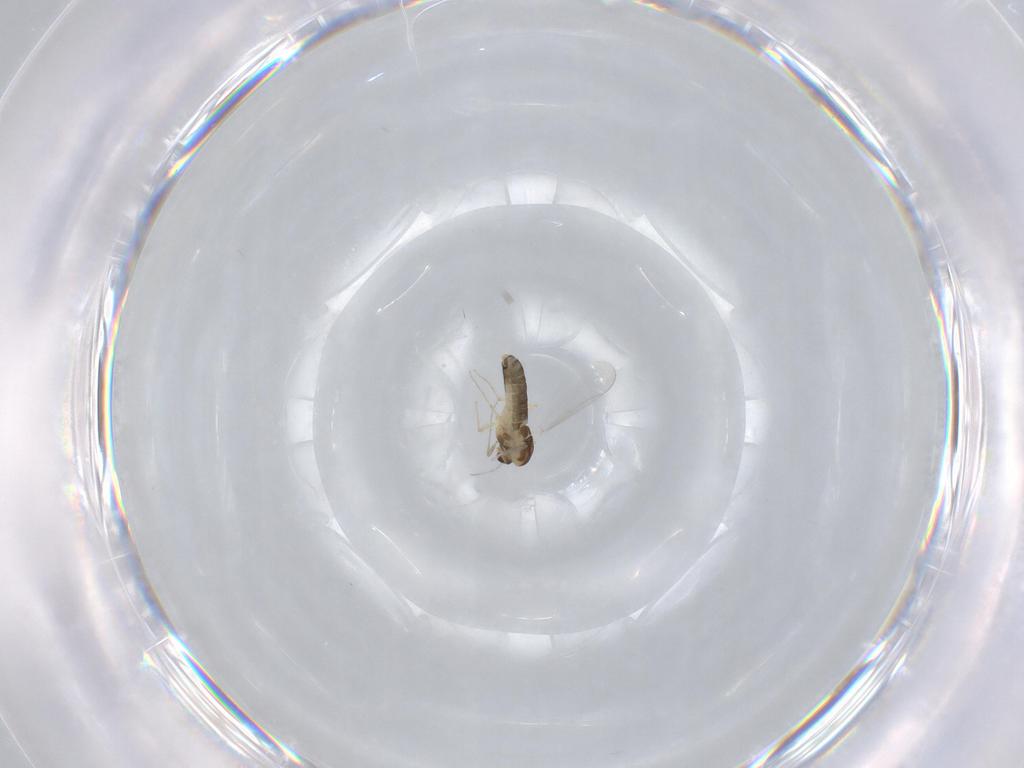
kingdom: Animalia
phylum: Arthropoda
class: Insecta
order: Diptera
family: Chironomidae
